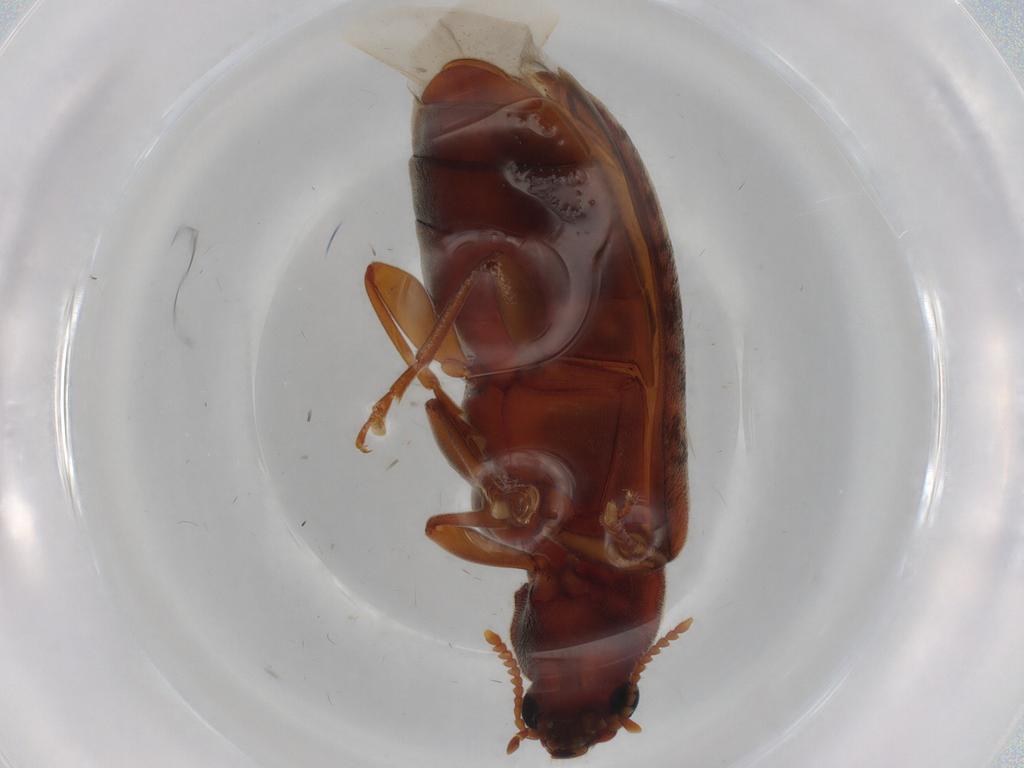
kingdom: Animalia
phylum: Arthropoda
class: Insecta
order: Coleoptera
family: Mycteridae
